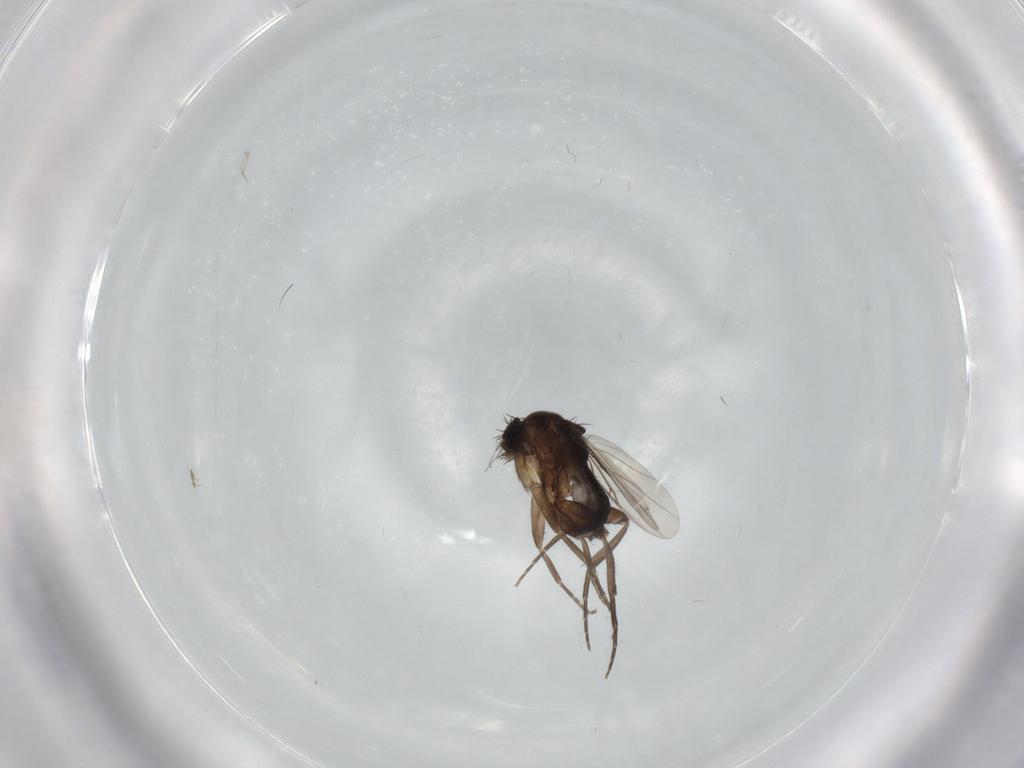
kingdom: Animalia
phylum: Arthropoda
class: Insecta
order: Diptera
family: Phoridae
